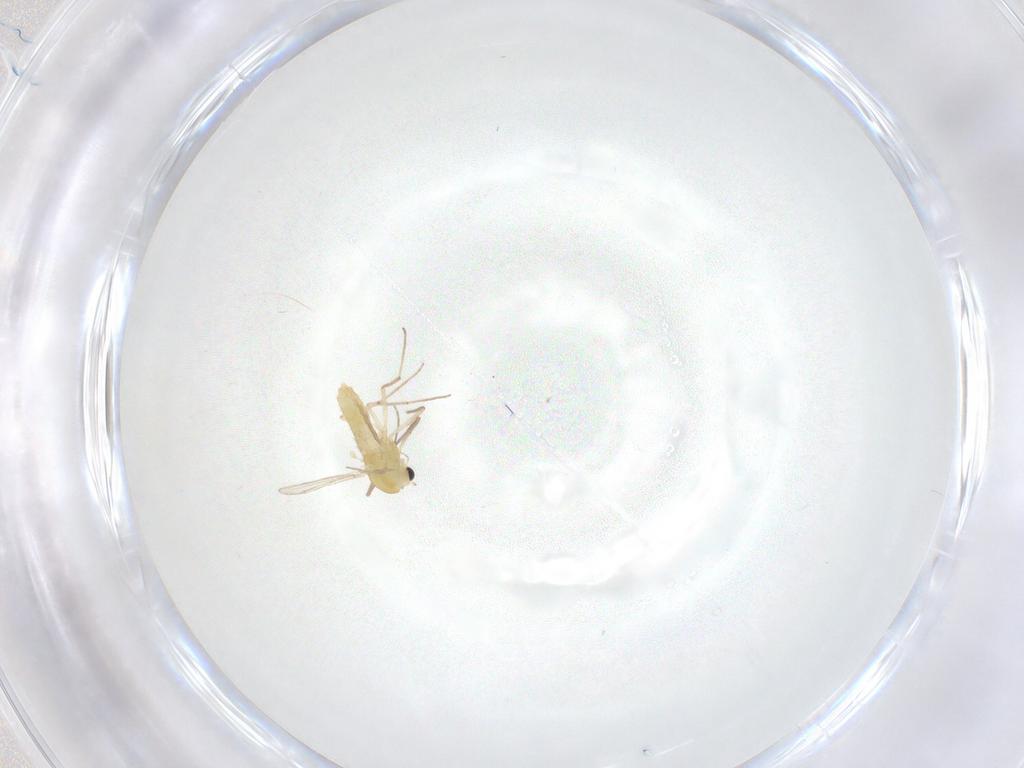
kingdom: Animalia
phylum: Arthropoda
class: Insecta
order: Diptera
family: Chironomidae
